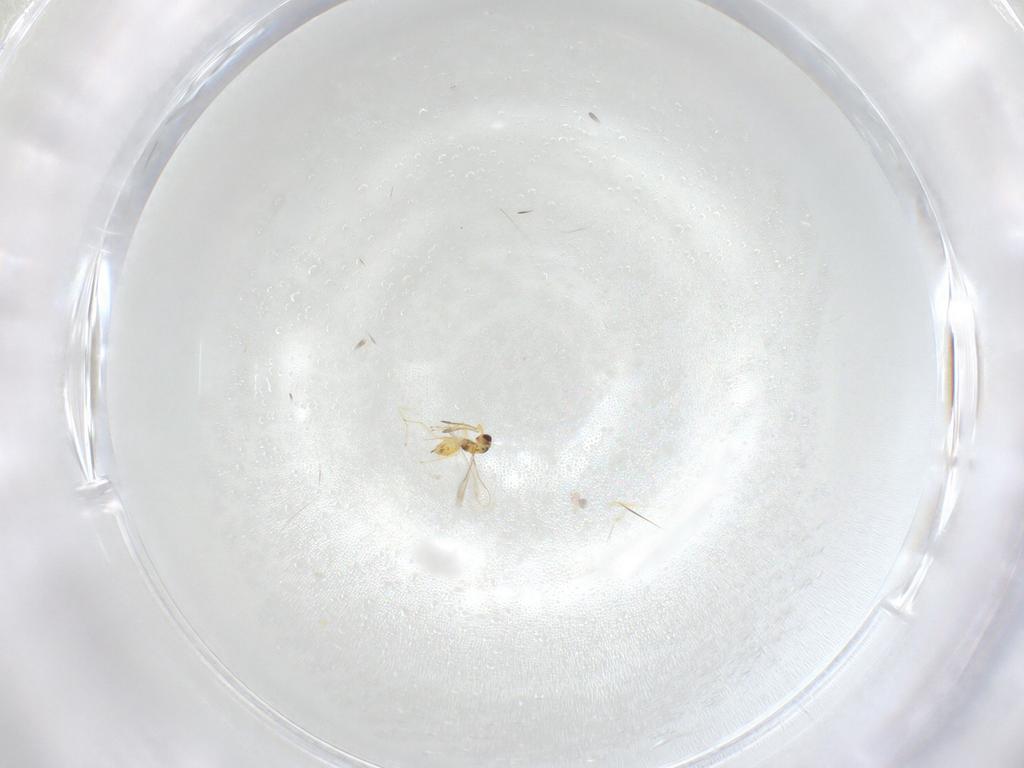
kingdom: Animalia
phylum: Arthropoda
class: Insecta
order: Hymenoptera
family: Mymaridae
